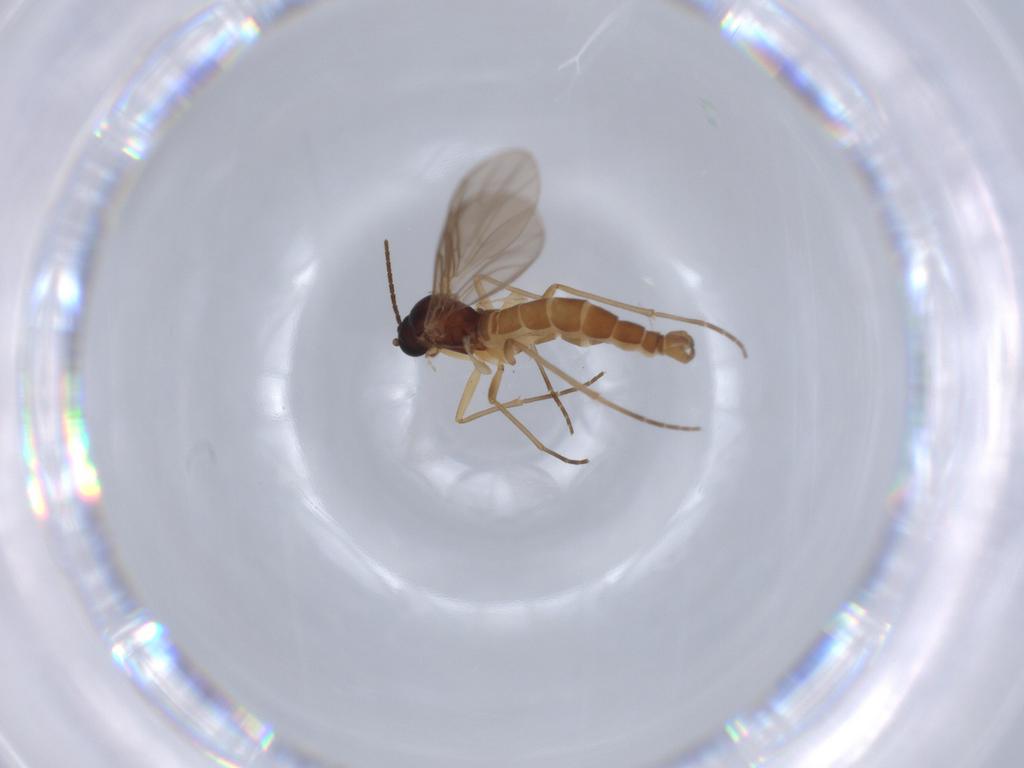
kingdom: Animalia
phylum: Arthropoda
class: Insecta
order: Diptera
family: Sciaridae
